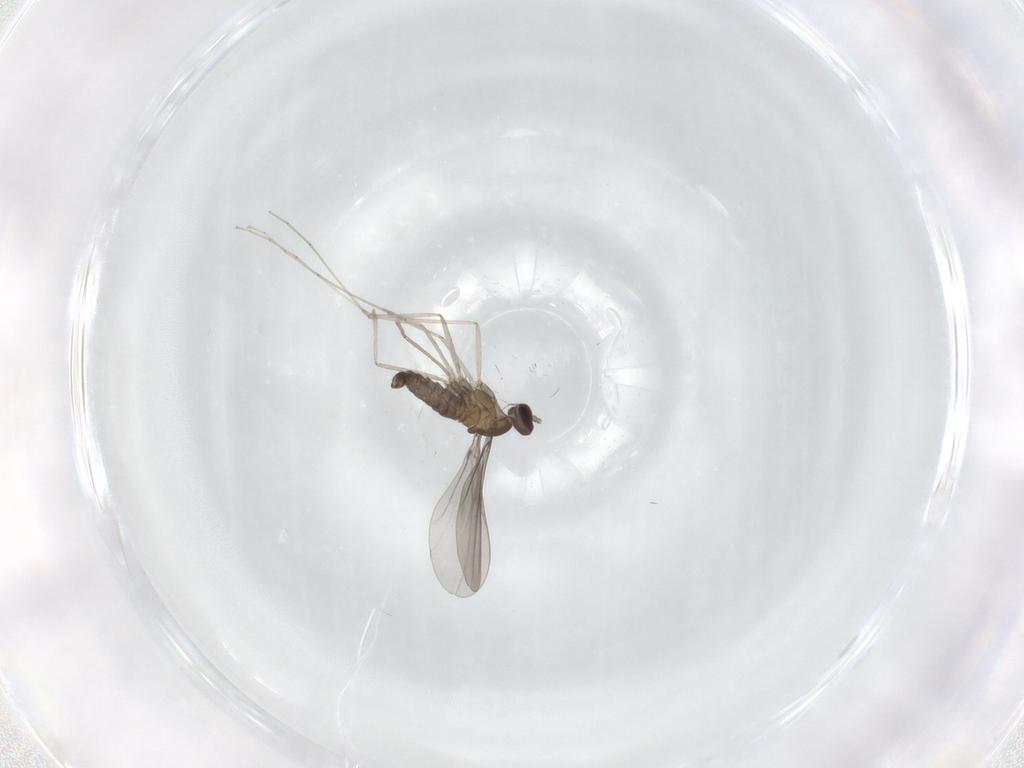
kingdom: Animalia
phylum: Arthropoda
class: Insecta
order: Diptera
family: Cecidomyiidae
